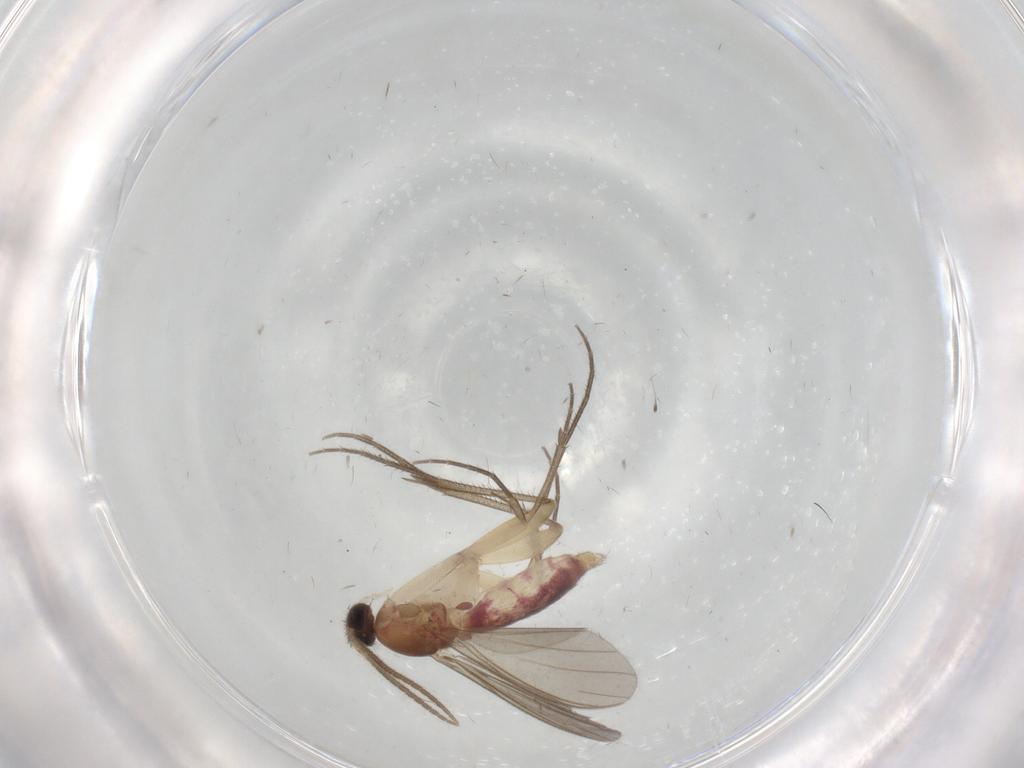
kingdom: Animalia
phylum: Arthropoda
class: Insecta
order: Diptera
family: Mycetophilidae
